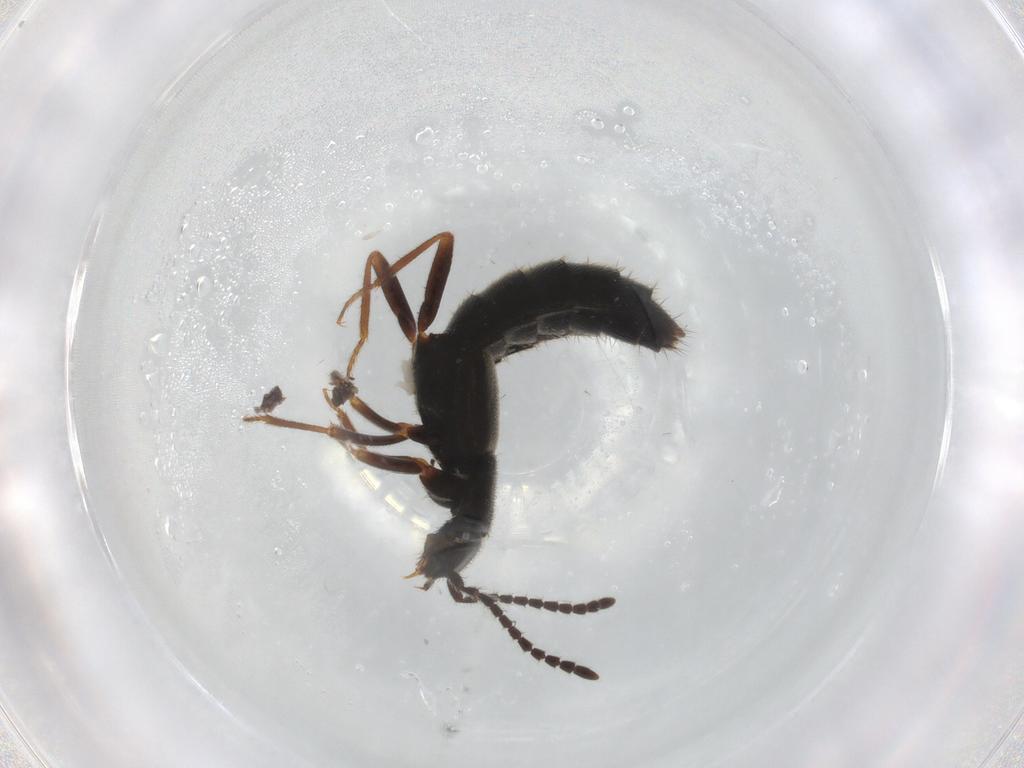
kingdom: Animalia
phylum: Arthropoda
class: Insecta
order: Coleoptera
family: Staphylinidae
